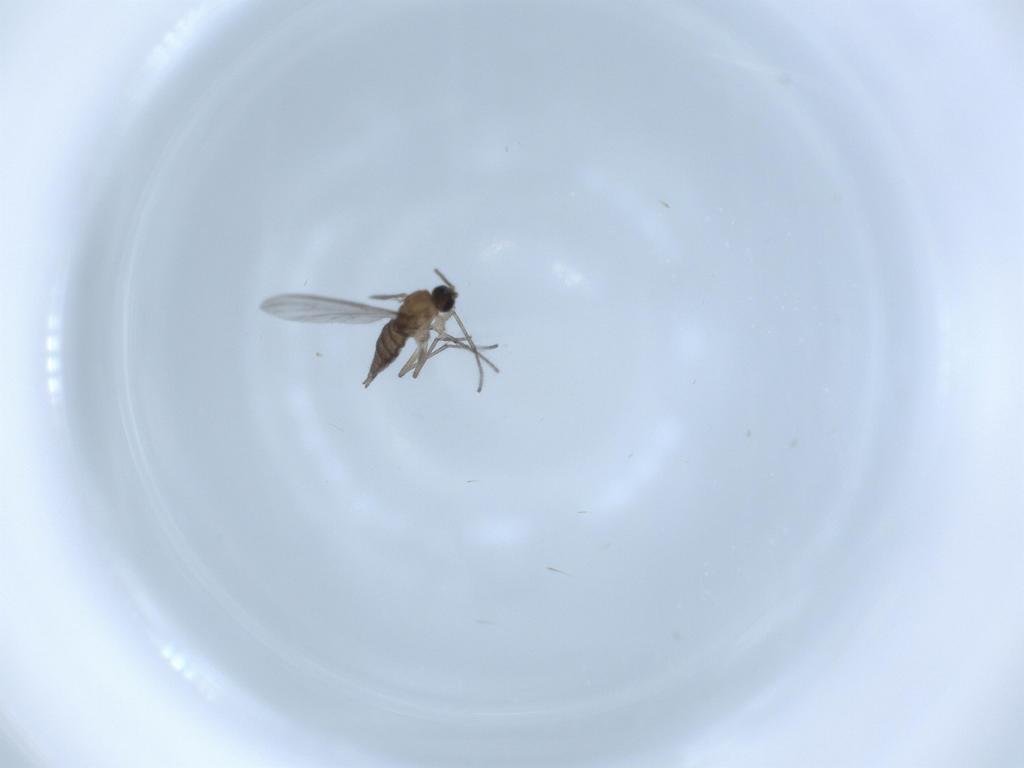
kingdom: Animalia
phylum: Arthropoda
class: Insecta
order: Diptera
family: Sciaridae
